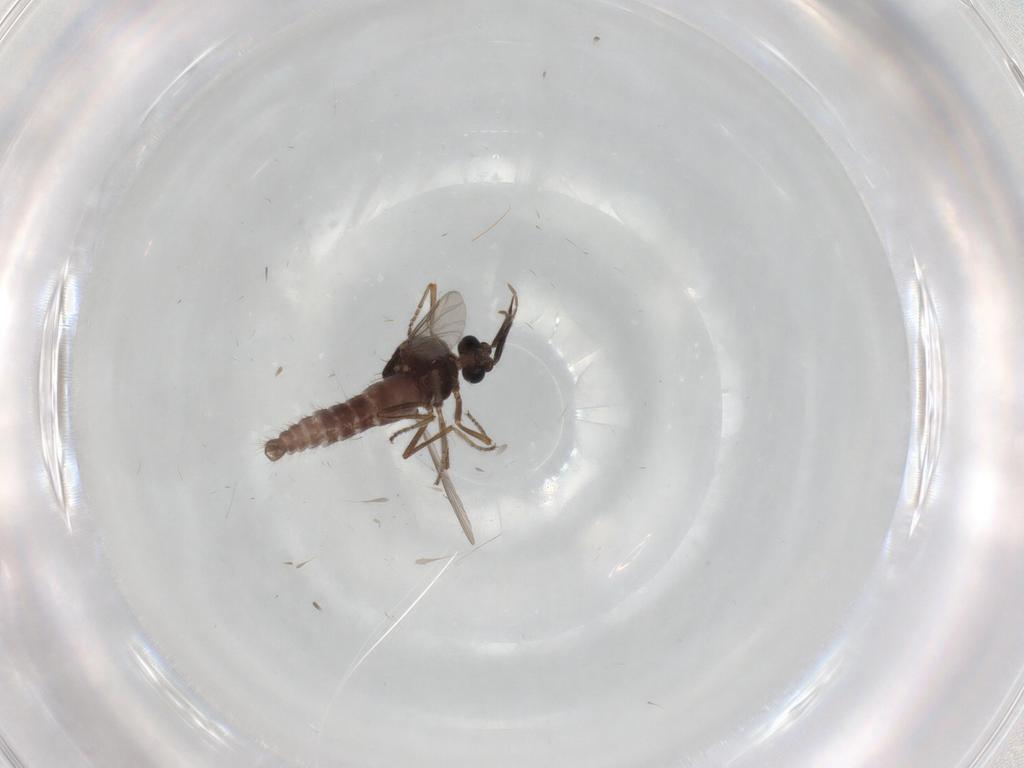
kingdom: Animalia
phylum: Arthropoda
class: Insecta
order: Diptera
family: Ceratopogonidae
